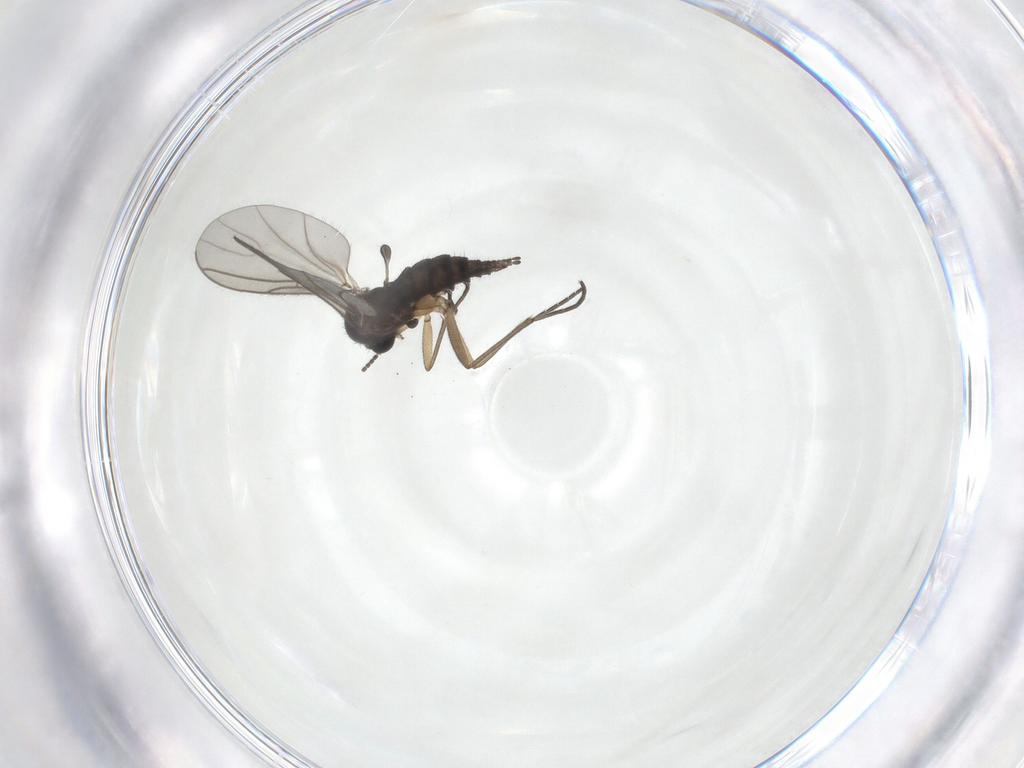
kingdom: Animalia
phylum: Arthropoda
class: Insecta
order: Diptera
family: Sciaridae
